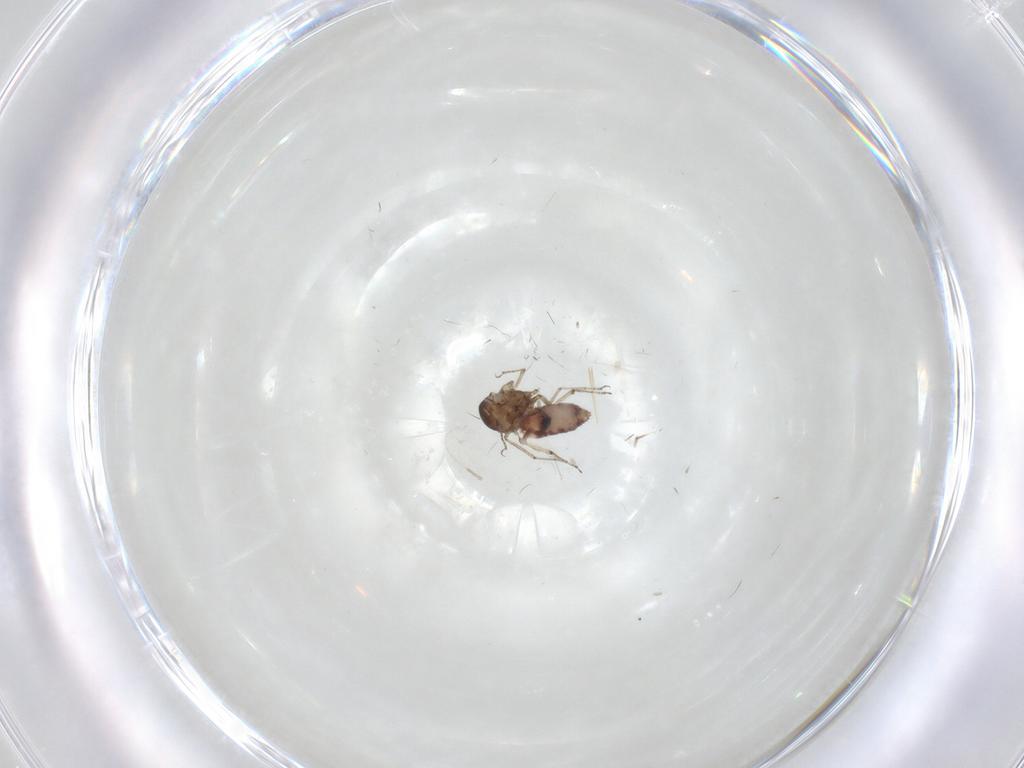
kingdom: Animalia
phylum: Arthropoda
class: Insecta
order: Diptera
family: Ceratopogonidae
